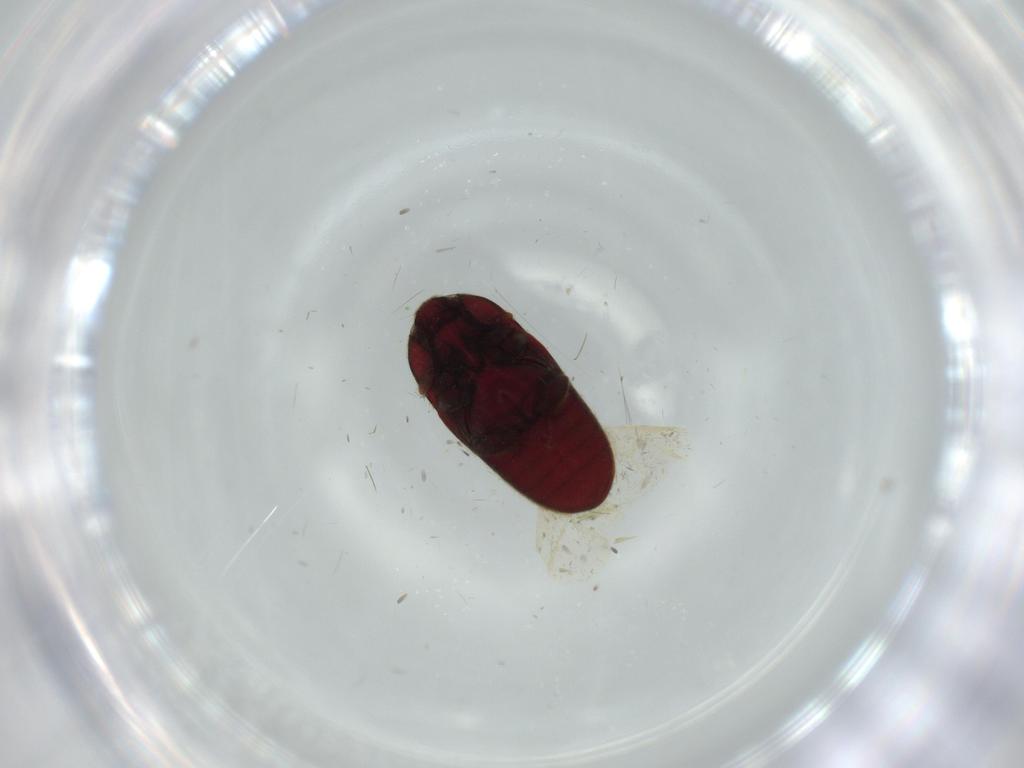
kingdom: Animalia
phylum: Arthropoda
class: Insecta
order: Coleoptera
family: Throscidae
